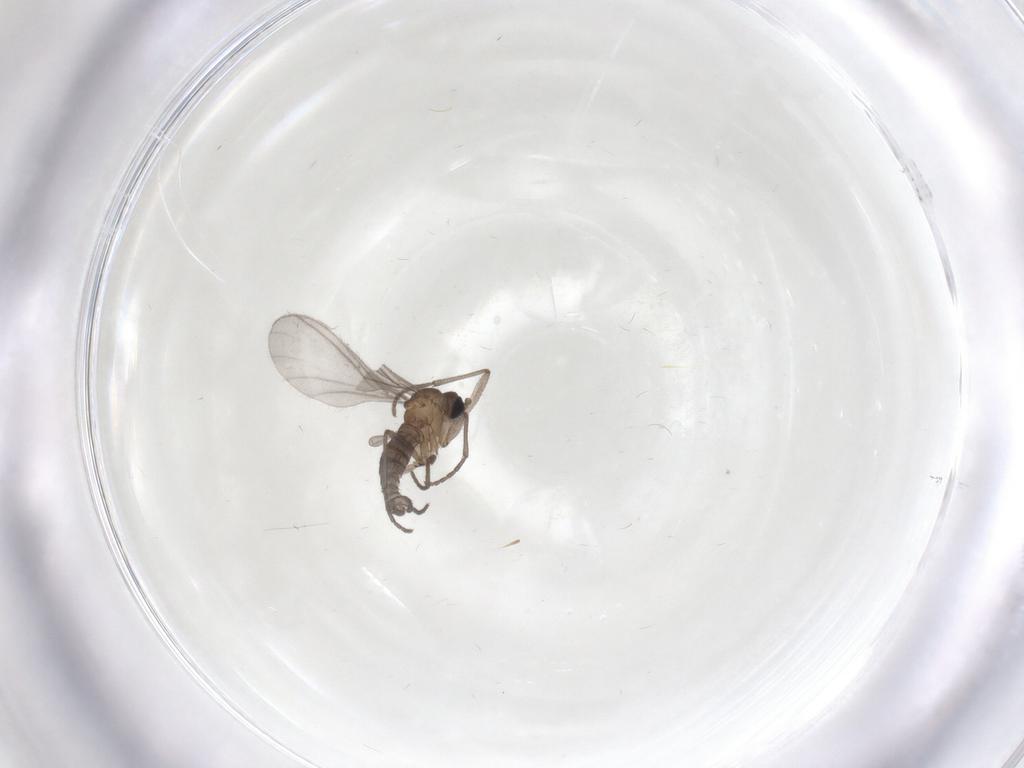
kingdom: Animalia
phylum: Arthropoda
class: Insecta
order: Diptera
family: Sciaridae
